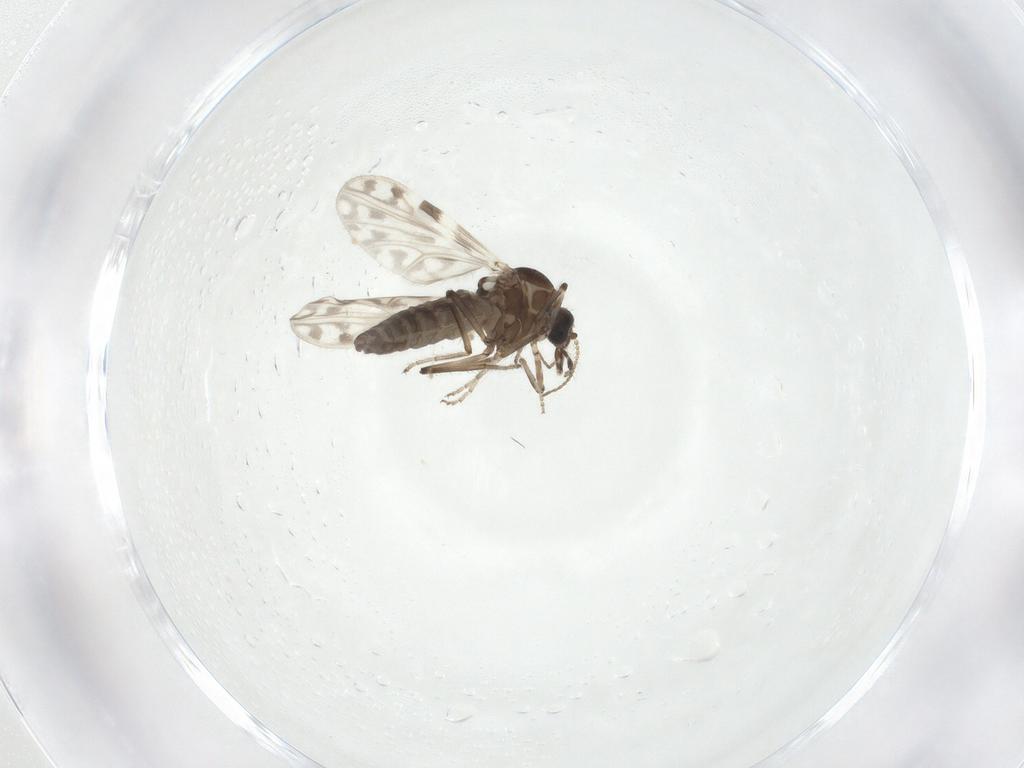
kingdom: Animalia
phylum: Arthropoda
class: Insecta
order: Diptera
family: Ceratopogonidae
